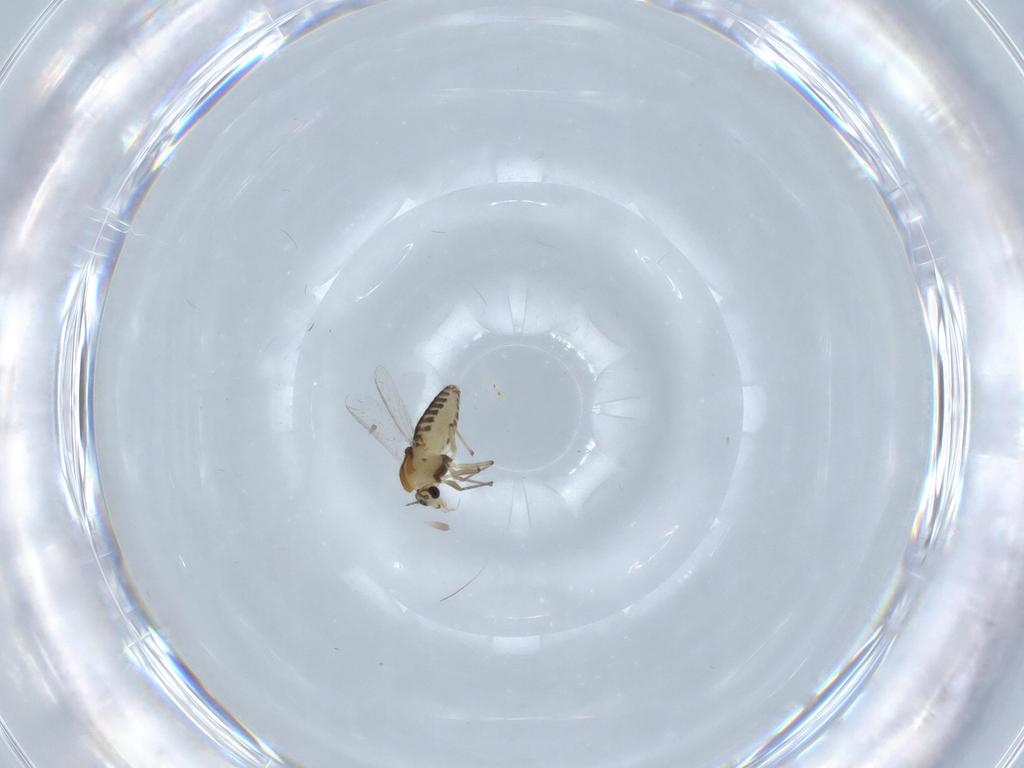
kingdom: Animalia
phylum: Arthropoda
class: Insecta
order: Diptera
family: Chironomidae
